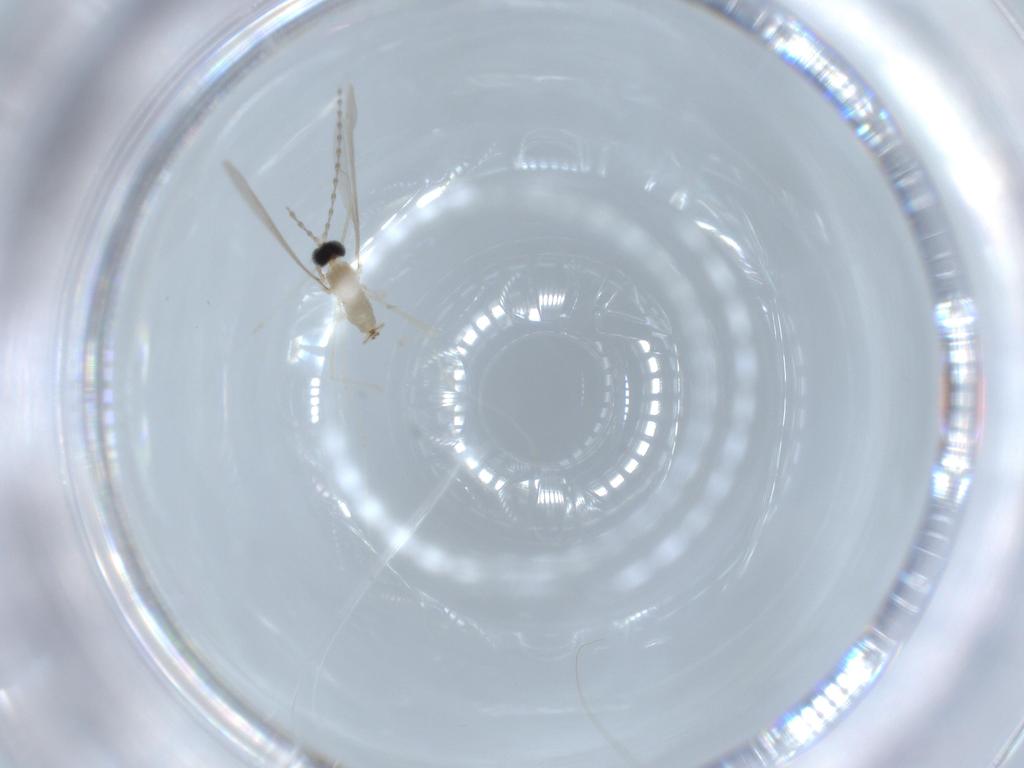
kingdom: Animalia
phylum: Arthropoda
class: Insecta
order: Diptera
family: Cecidomyiidae
